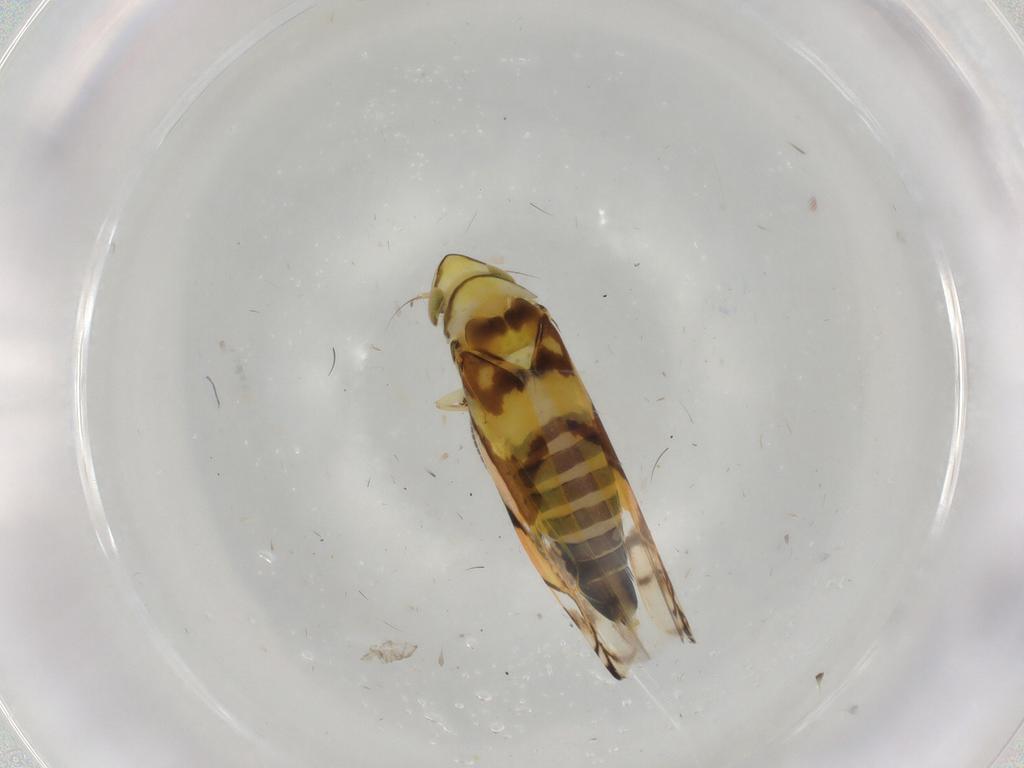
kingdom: Animalia
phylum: Arthropoda
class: Insecta
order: Hemiptera
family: Cicadellidae
